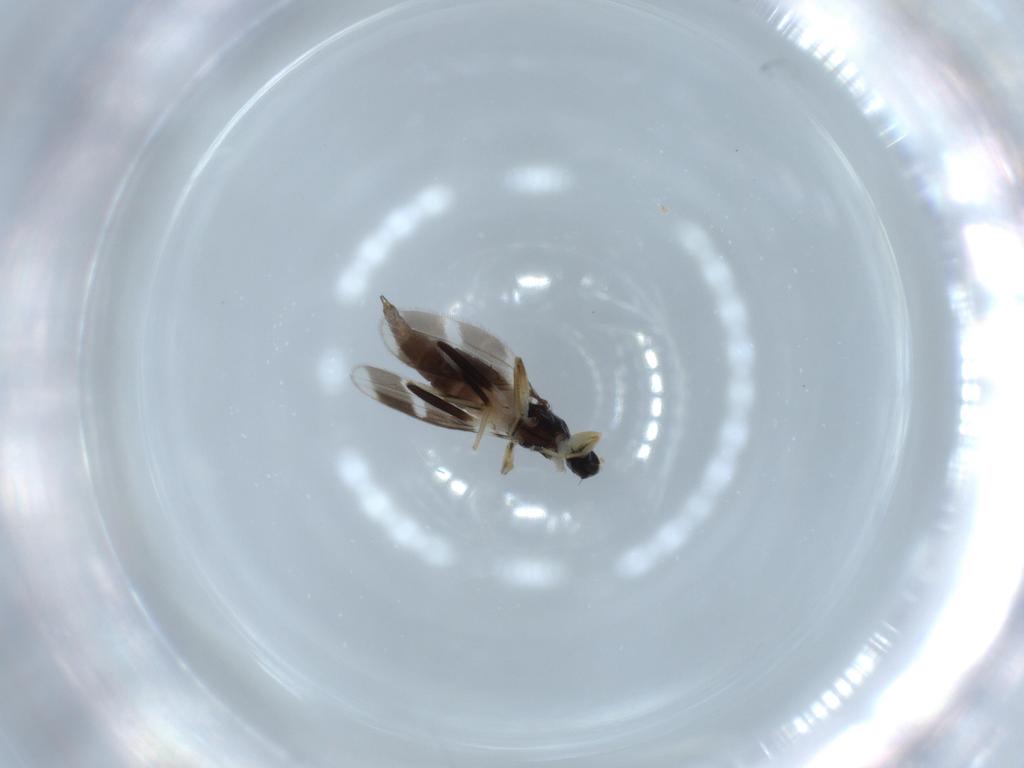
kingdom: Animalia
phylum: Arthropoda
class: Insecta
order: Diptera
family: Hybotidae
